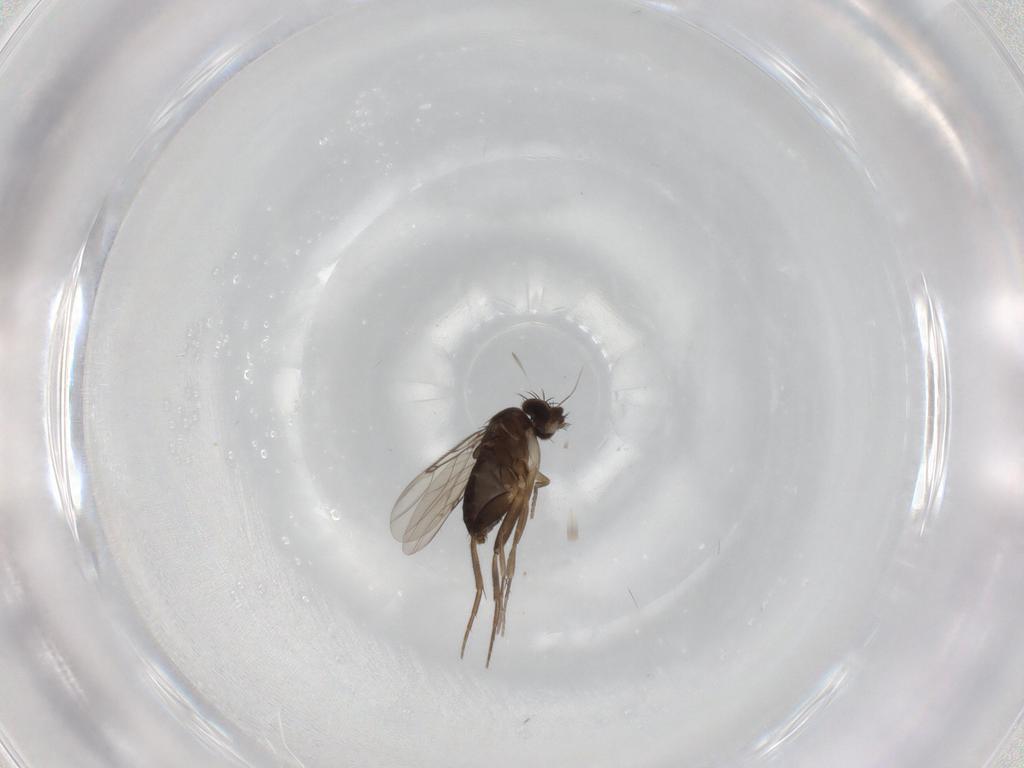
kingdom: Animalia
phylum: Arthropoda
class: Insecta
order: Diptera
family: Phoridae
